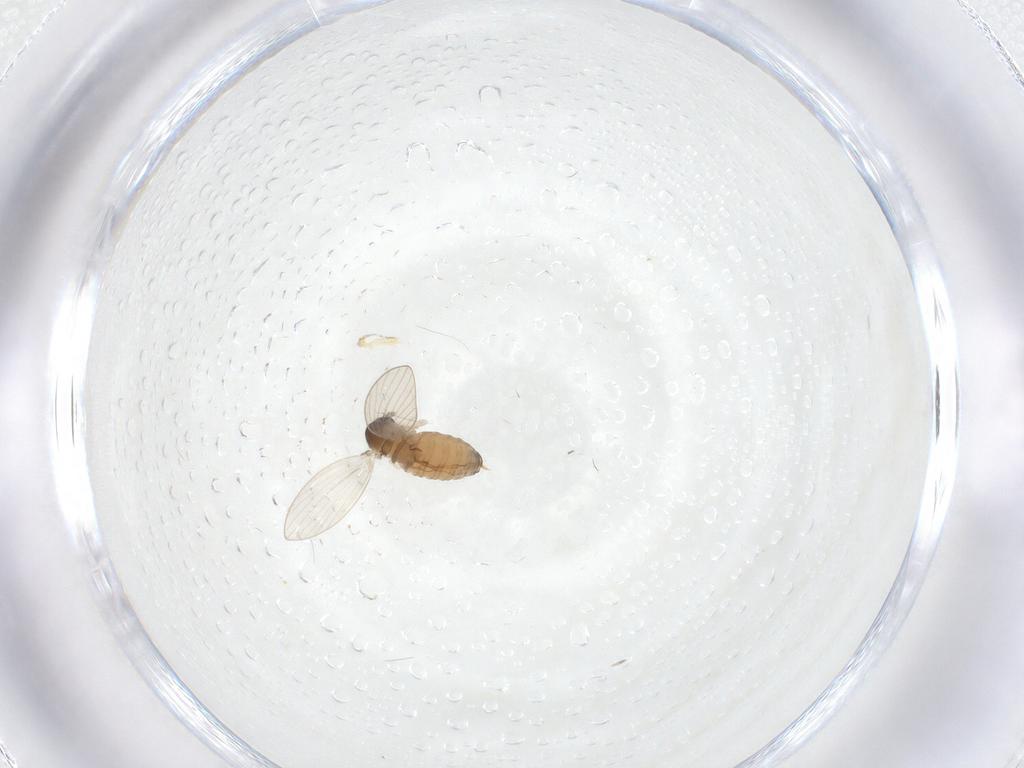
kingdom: Animalia
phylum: Arthropoda
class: Insecta
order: Diptera
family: Psychodidae
